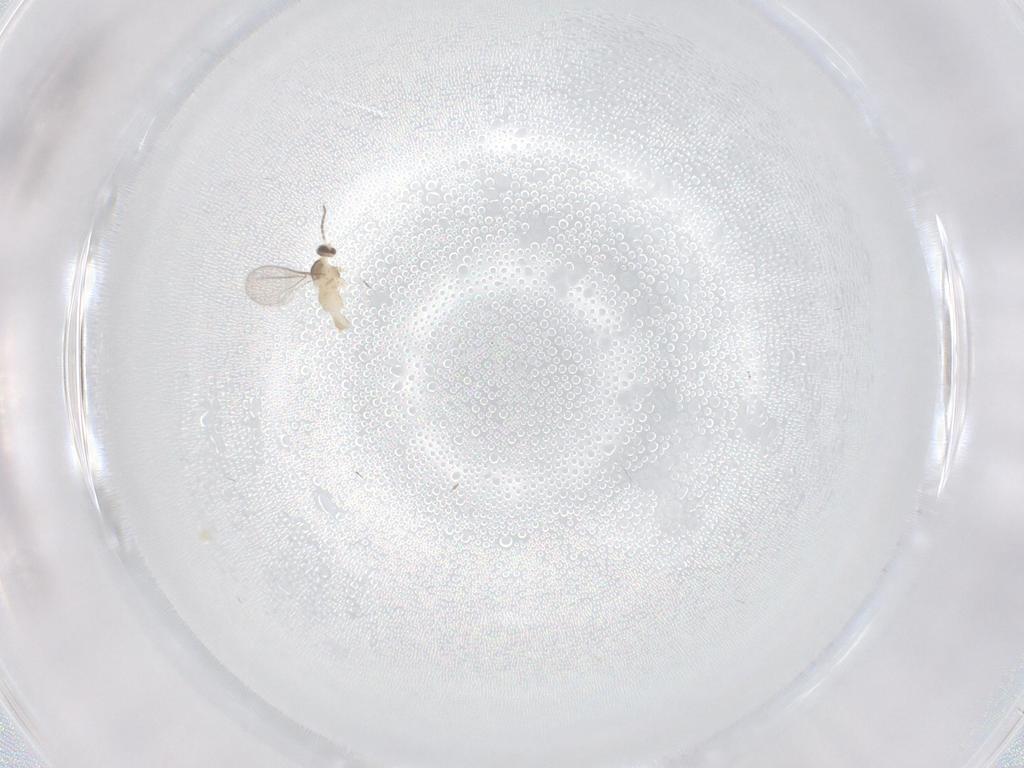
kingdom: Animalia
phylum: Arthropoda
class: Insecta
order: Diptera
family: Cecidomyiidae
